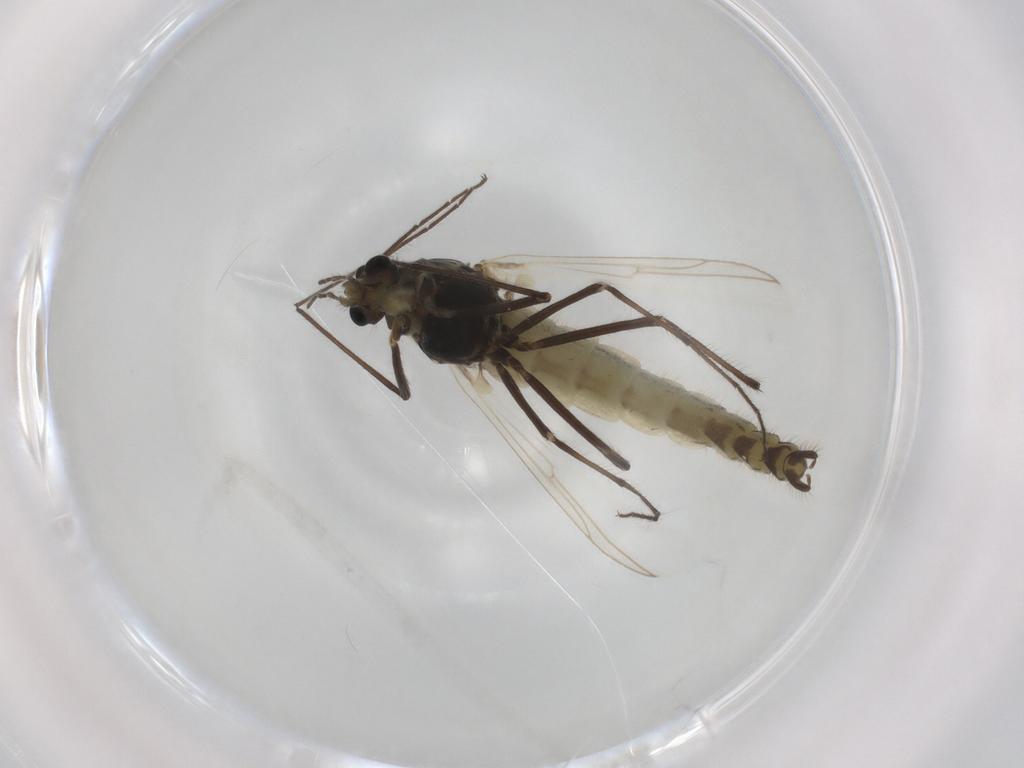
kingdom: Animalia
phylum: Arthropoda
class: Insecta
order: Diptera
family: Chironomidae
